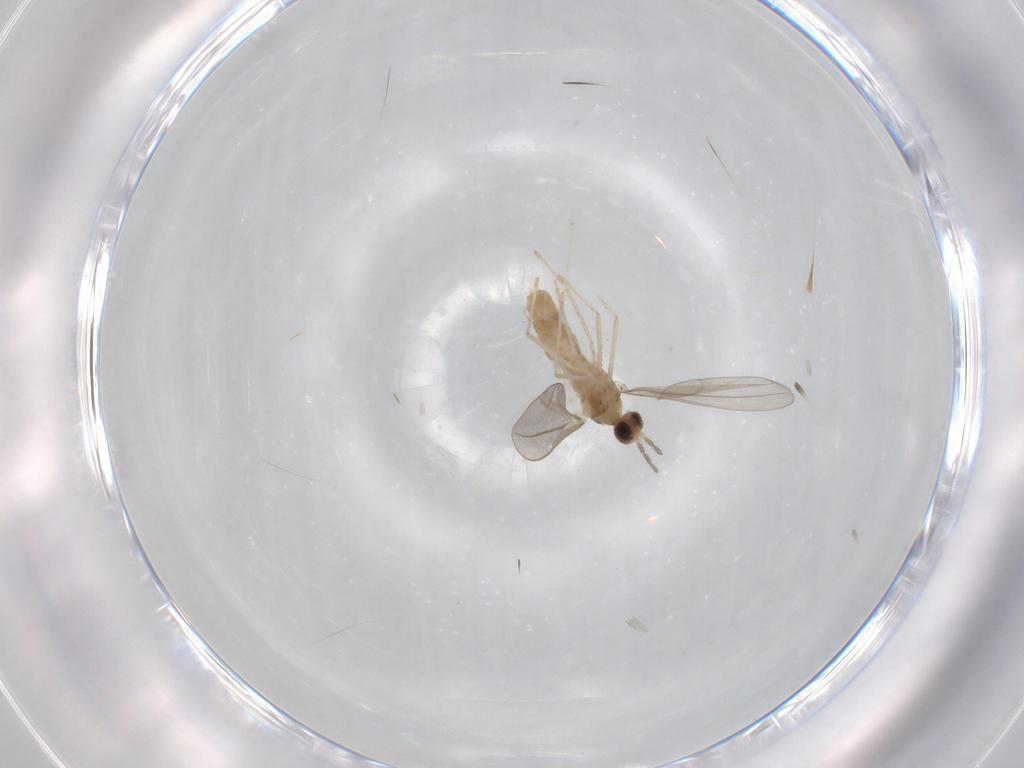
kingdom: Animalia
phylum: Arthropoda
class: Insecta
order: Diptera
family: Cecidomyiidae
